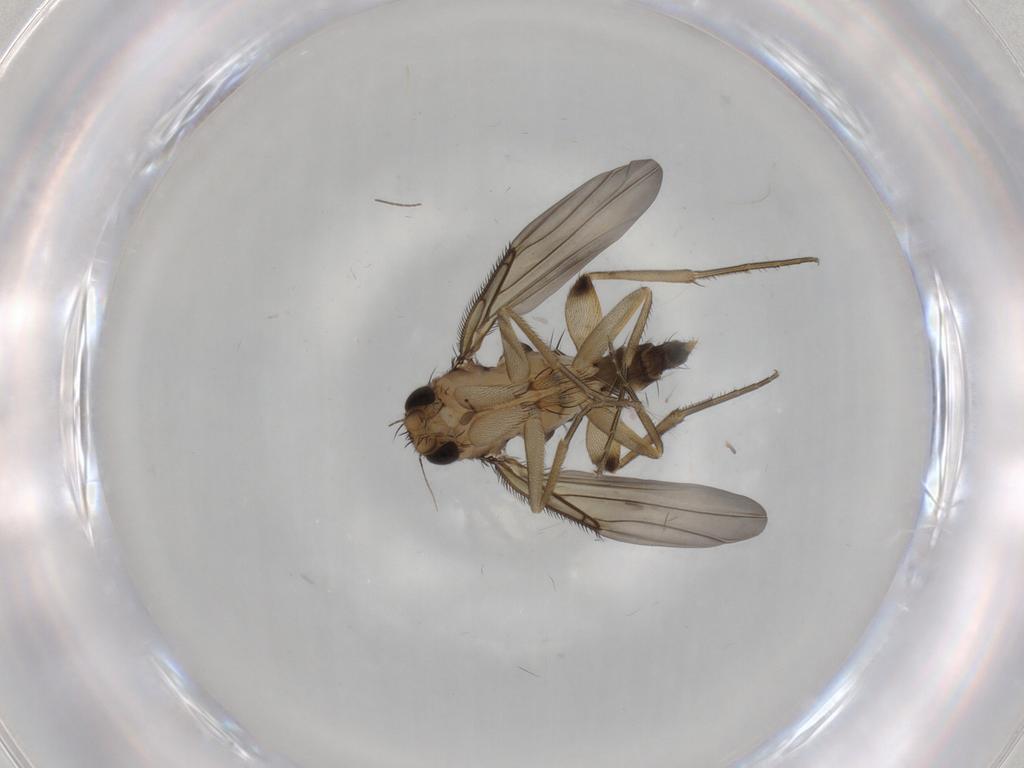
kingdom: Animalia
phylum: Arthropoda
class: Insecta
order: Diptera
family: Phoridae
